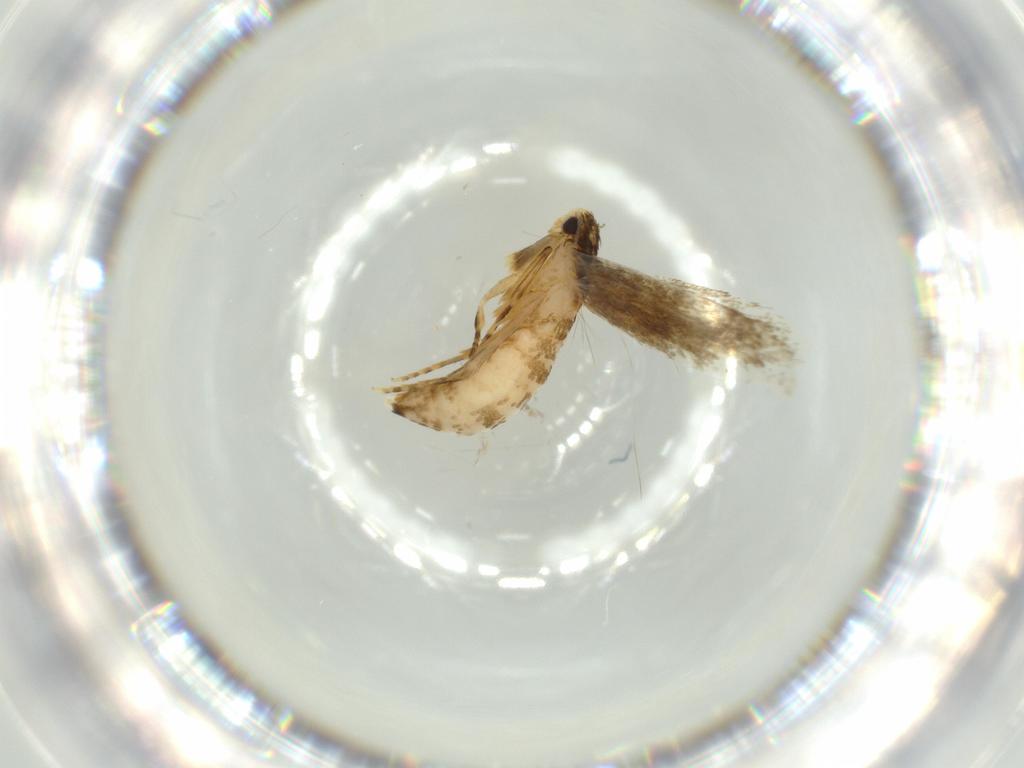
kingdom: Animalia
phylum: Arthropoda
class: Insecta
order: Lepidoptera
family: Tineidae
